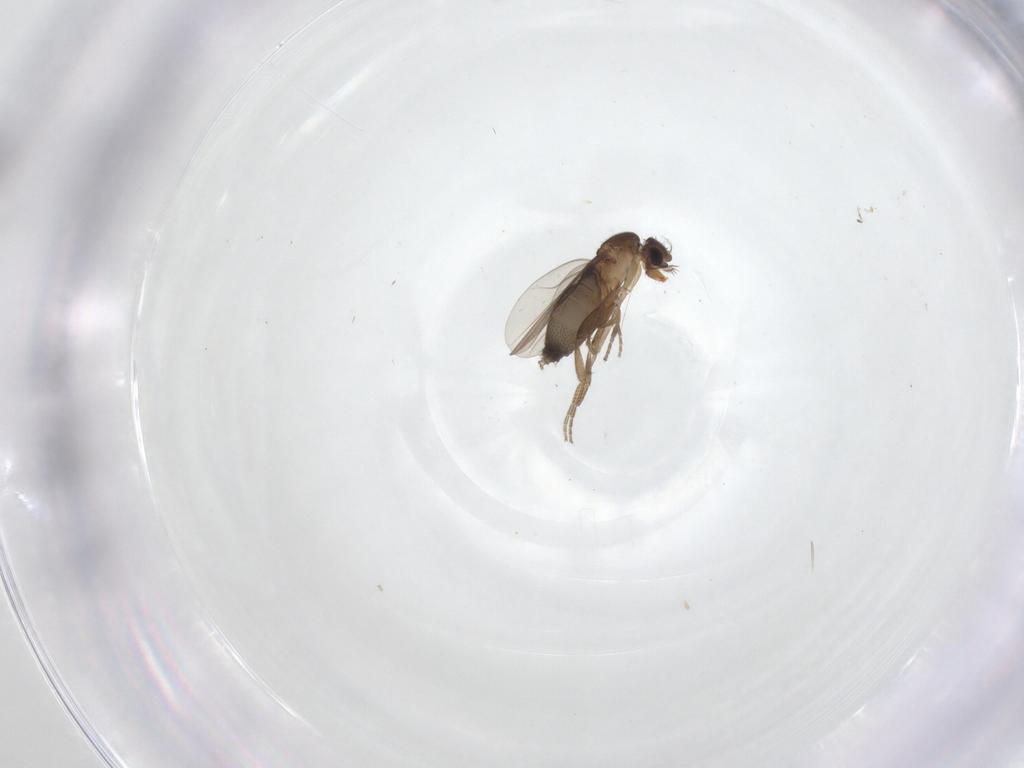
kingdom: Animalia
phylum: Arthropoda
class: Insecta
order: Diptera
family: Phoridae
